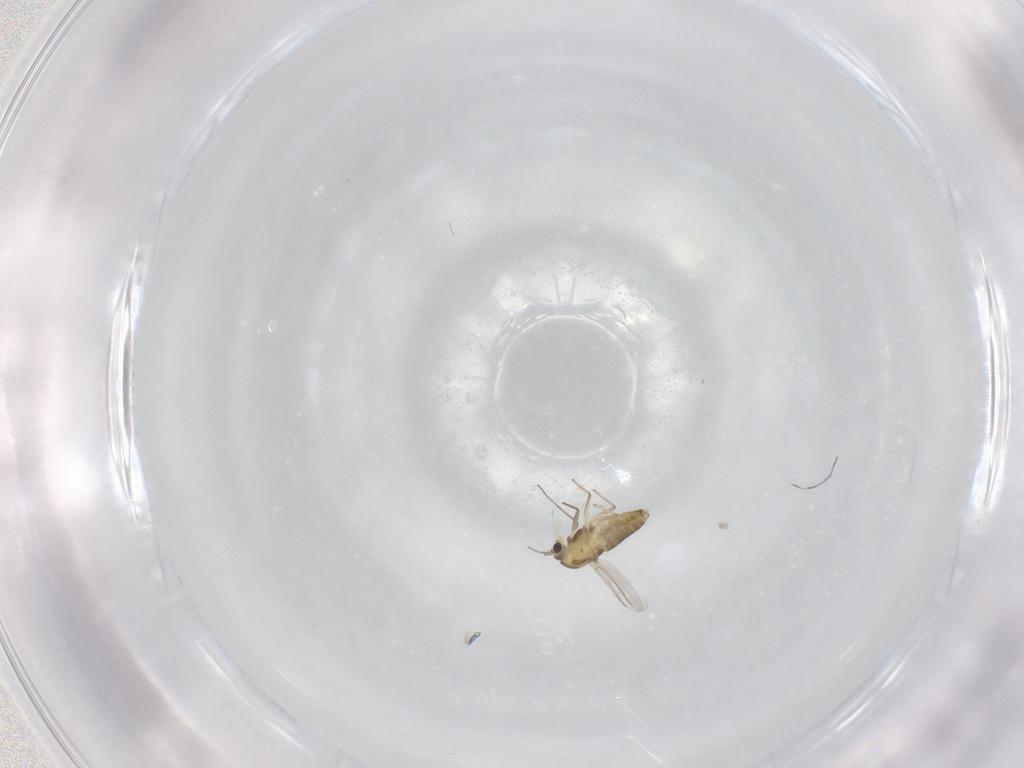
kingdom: Animalia
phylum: Arthropoda
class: Insecta
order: Diptera
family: Chironomidae
